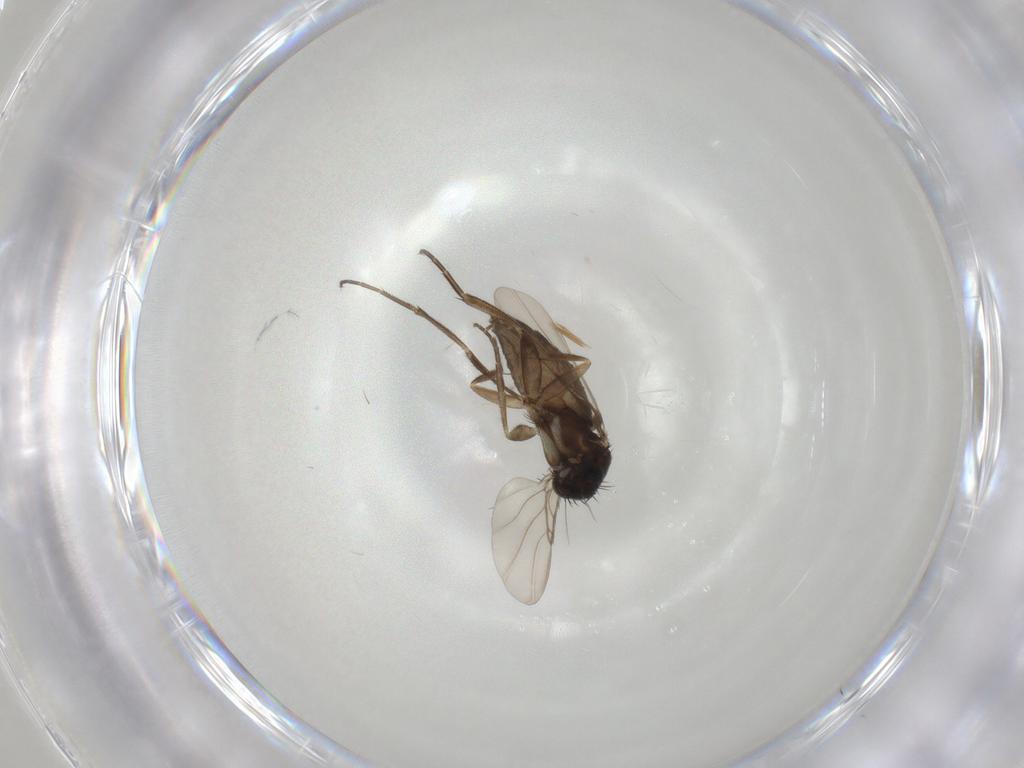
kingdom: Animalia
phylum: Arthropoda
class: Insecta
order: Diptera
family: Phoridae
